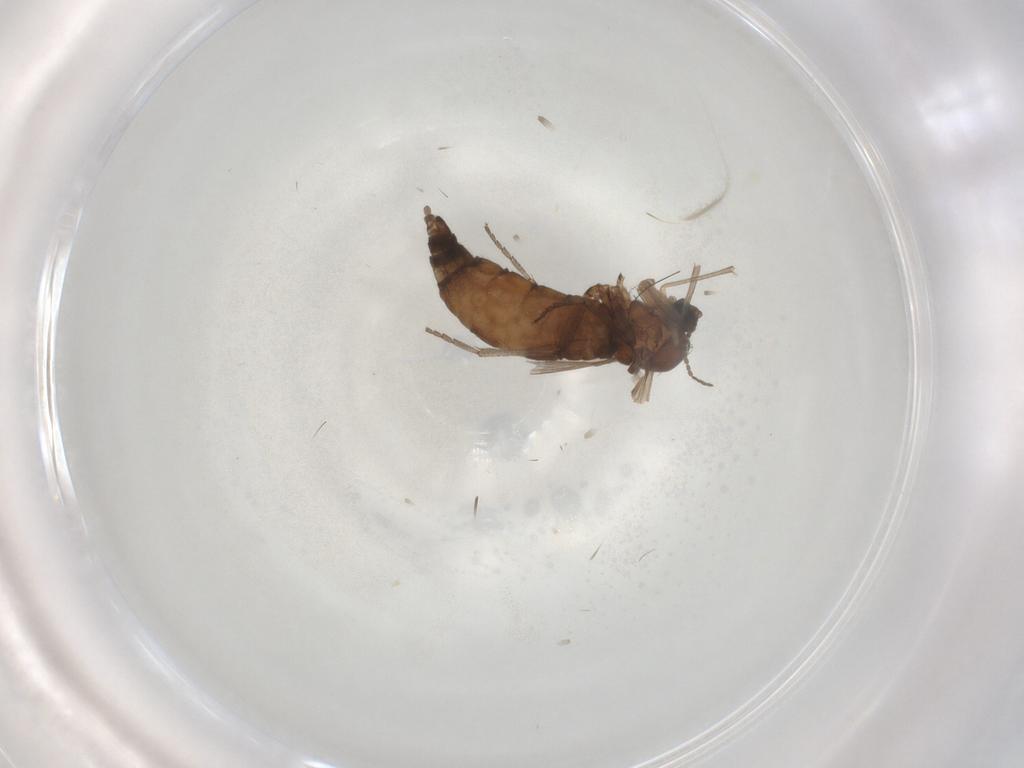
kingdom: Animalia
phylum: Arthropoda
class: Insecta
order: Diptera
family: Sciaridae
